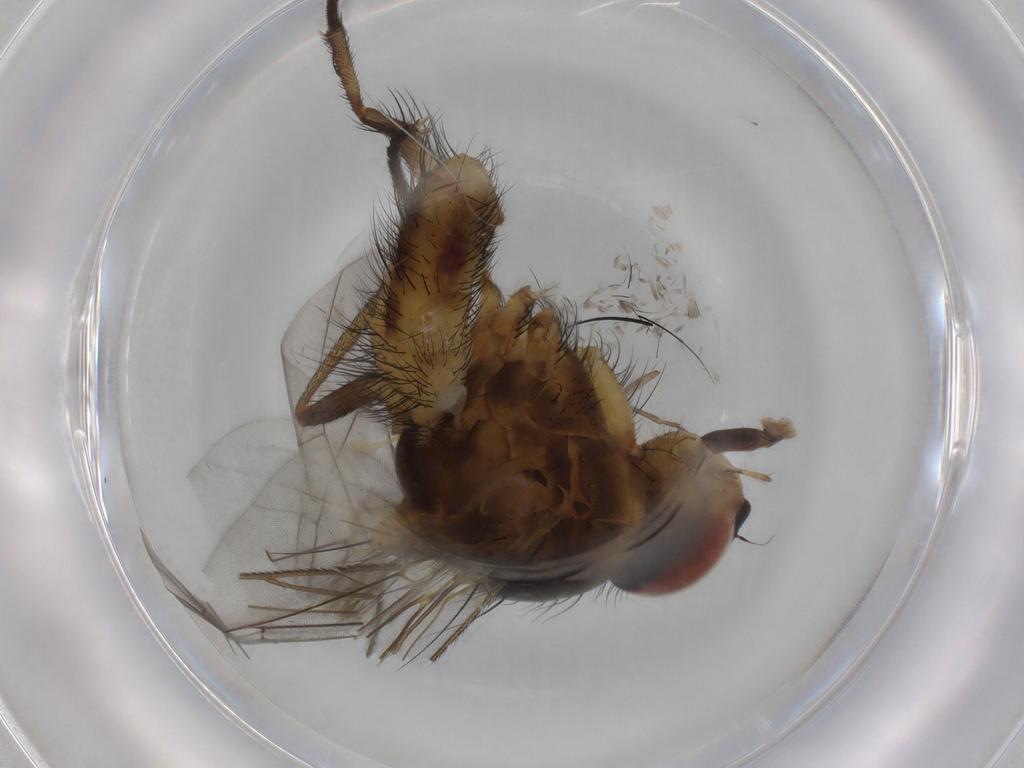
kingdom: Animalia
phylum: Arthropoda
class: Insecta
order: Diptera
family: Anthomyiidae
